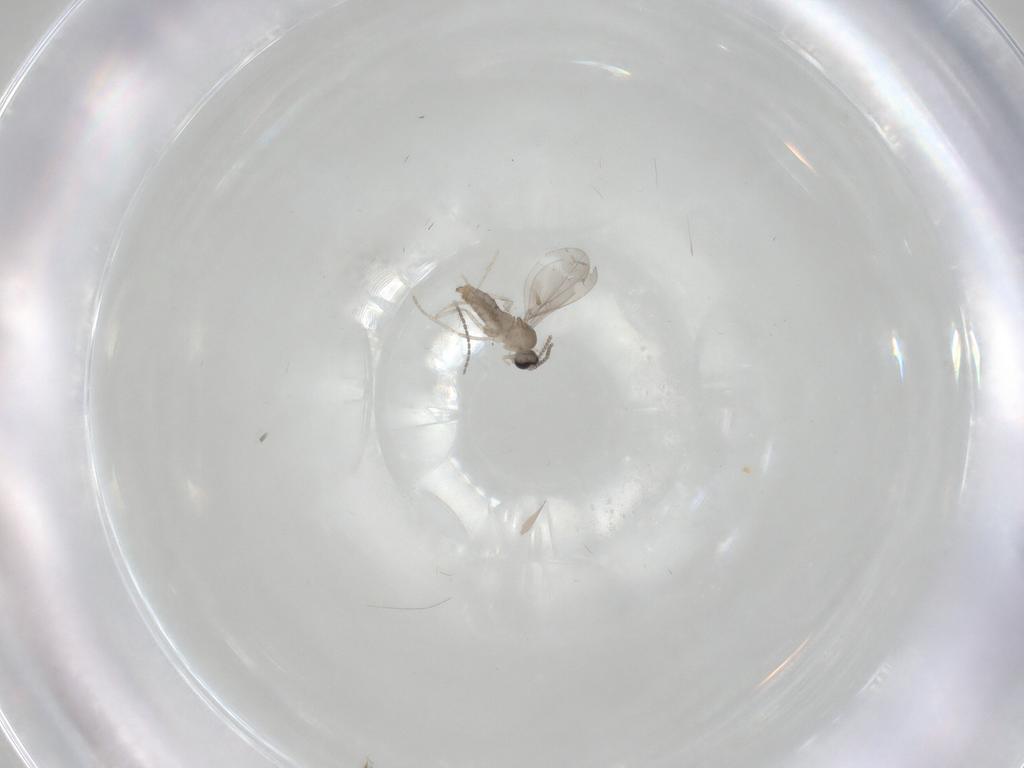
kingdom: Animalia
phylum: Arthropoda
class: Insecta
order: Diptera
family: Chironomidae
